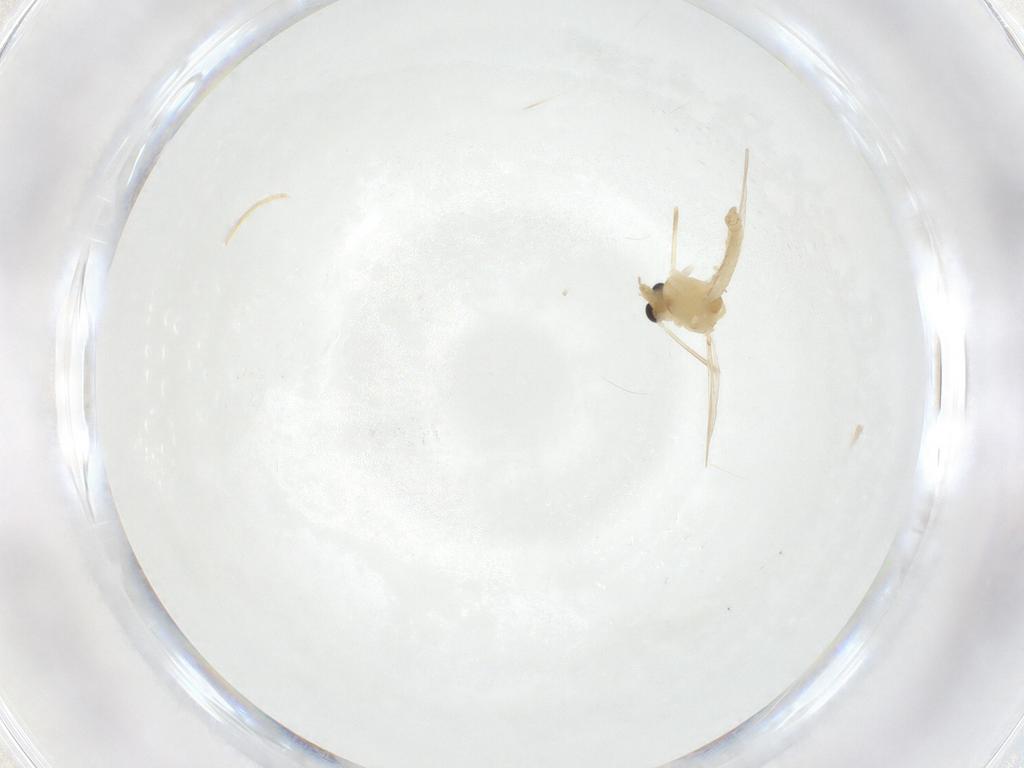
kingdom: Animalia
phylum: Arthropoda
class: Insecta
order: Diptera
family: Chironomidae
